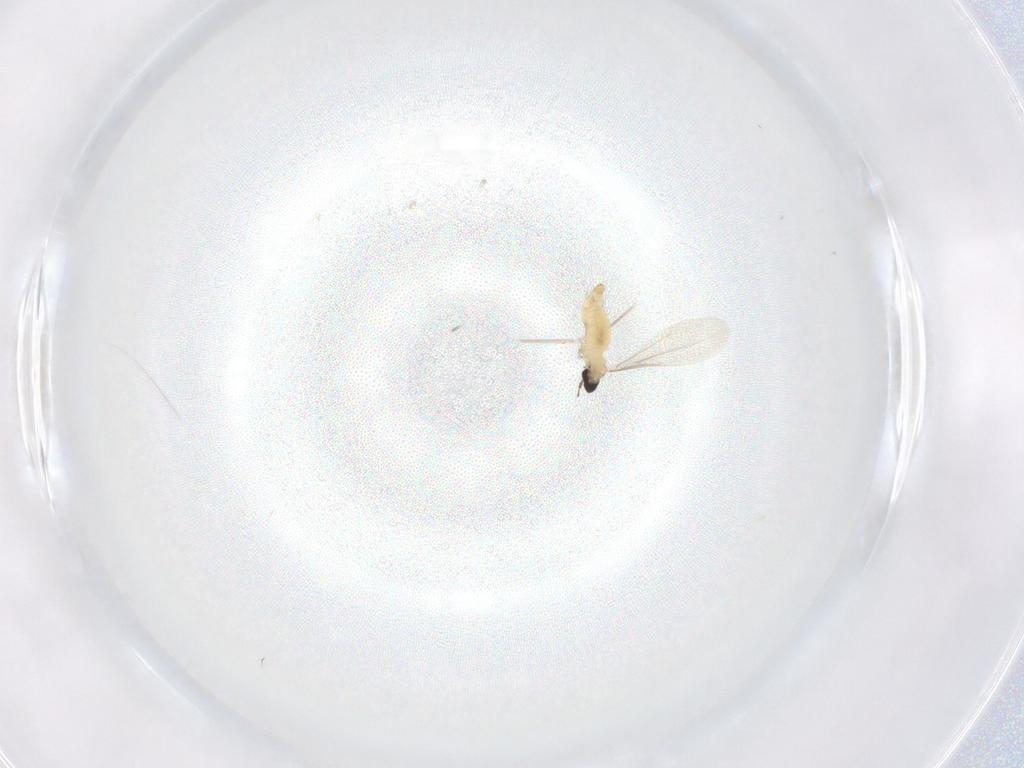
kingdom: Animalia
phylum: Arthropoda
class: Insecta
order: Diptera
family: Cecidomyiidae
